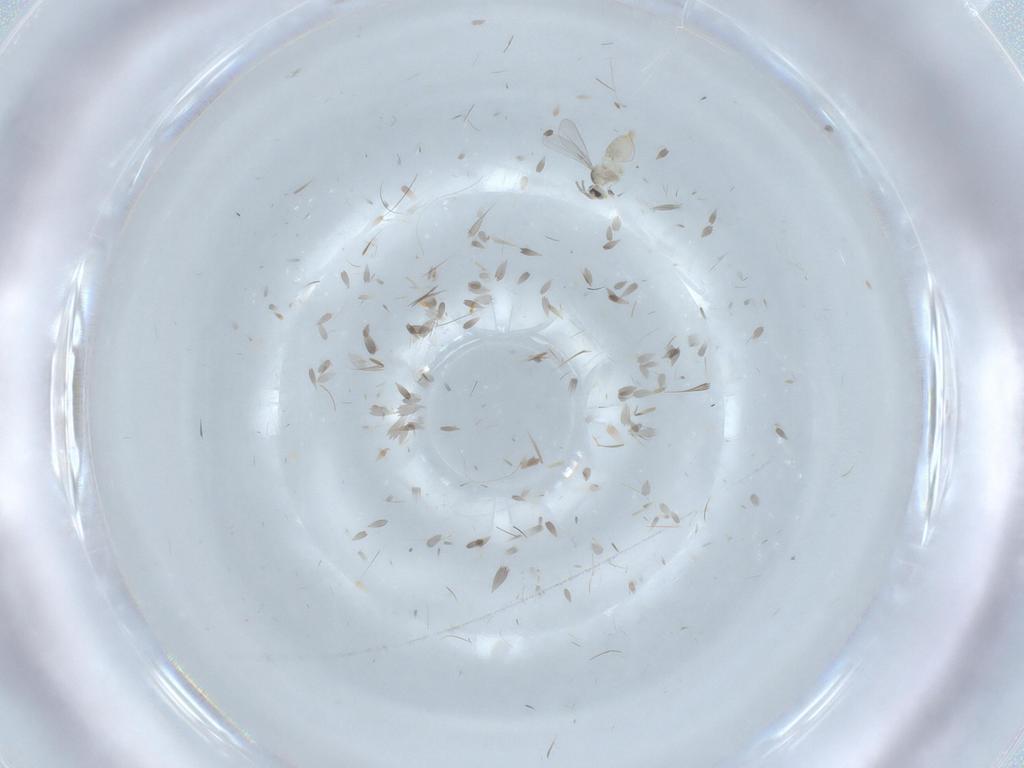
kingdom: Animalia
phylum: Arthropoda
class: Insecta
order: Diptera
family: Cecidomyiidae
